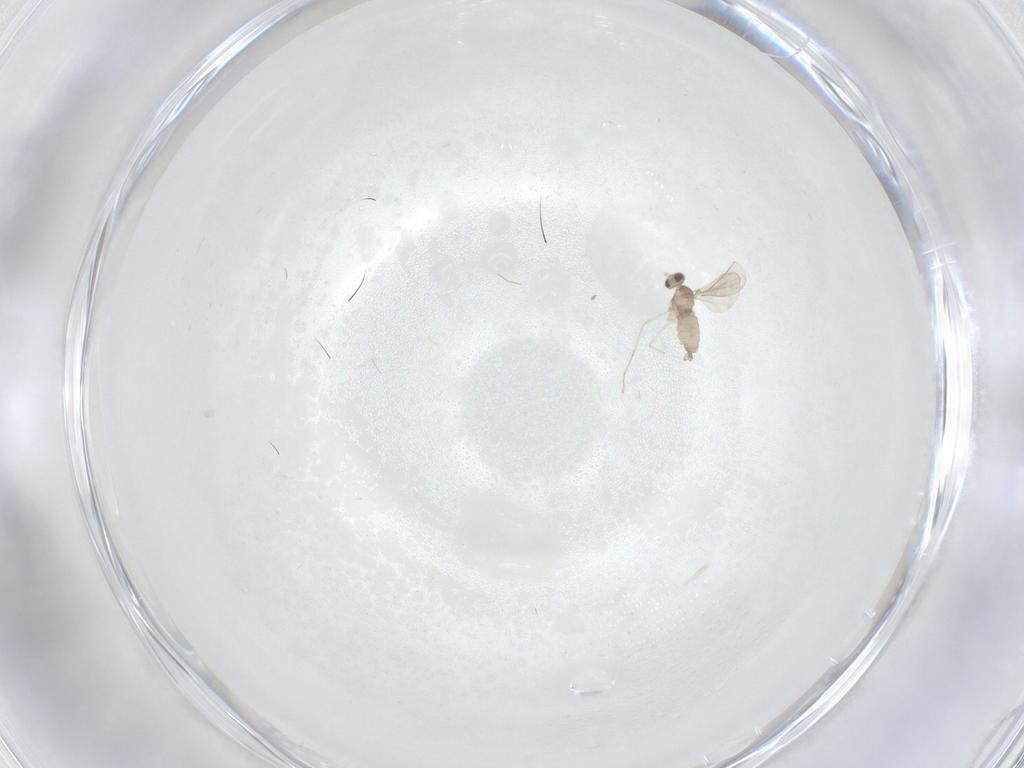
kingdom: Animalia
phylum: Arthropoda
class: Insecta
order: Diptera
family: Cecidomyiidae
